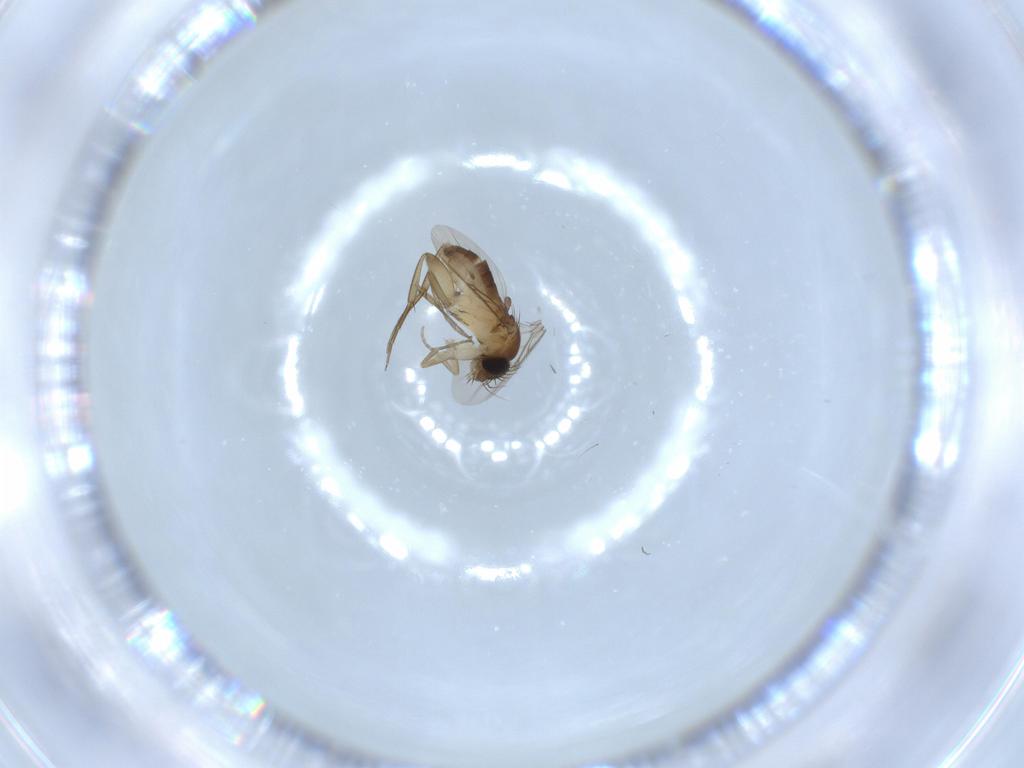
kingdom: Animalia
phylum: Arthropoda
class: Insecta
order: Diptera
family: Phoridae
